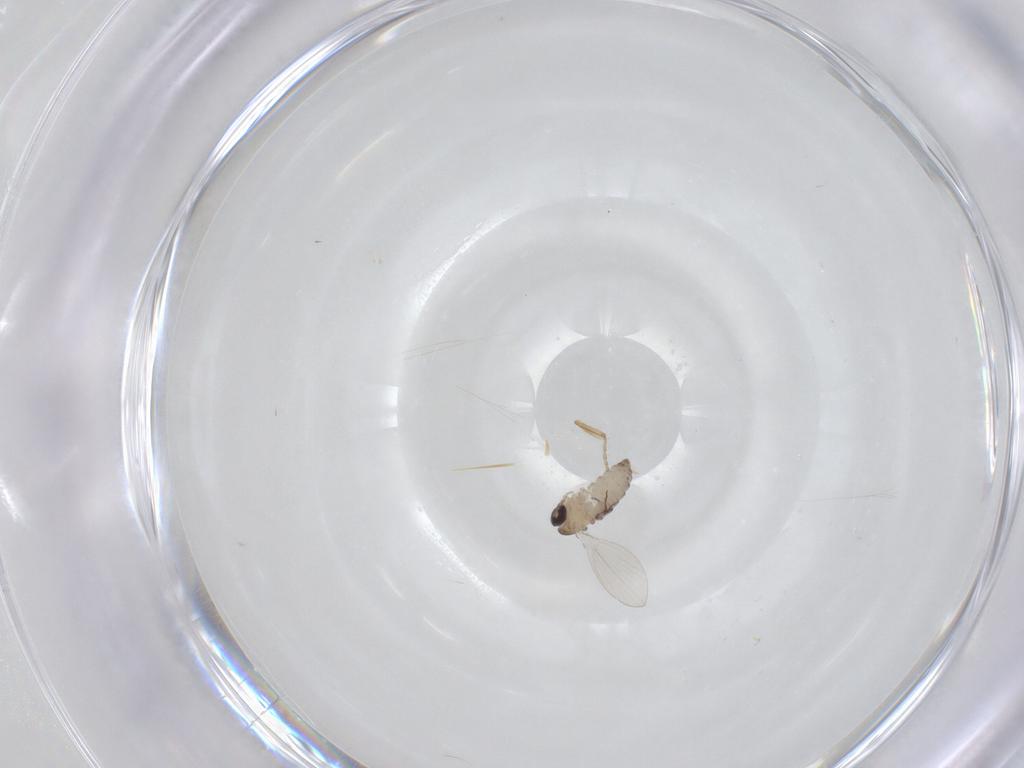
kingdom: Animalia
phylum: Arthropoda
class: Insecta
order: Diptera
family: Psychodidae
